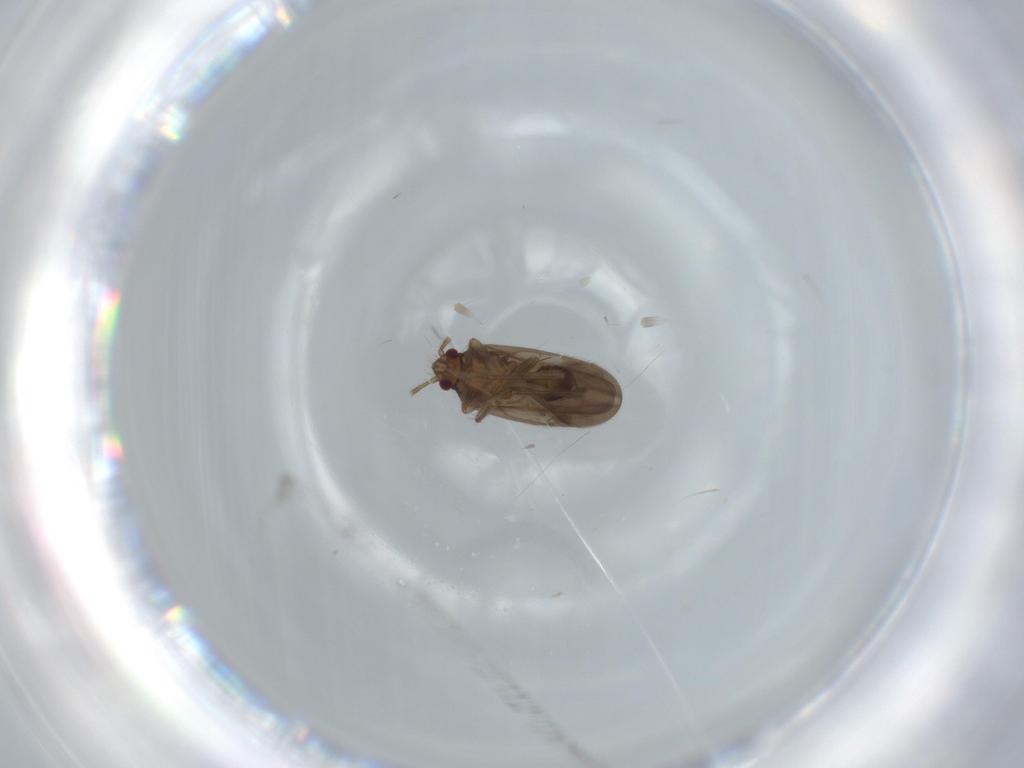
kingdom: Animalia
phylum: Arthropoda
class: Insecta
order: Hemiptera
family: Ceratocombidae
